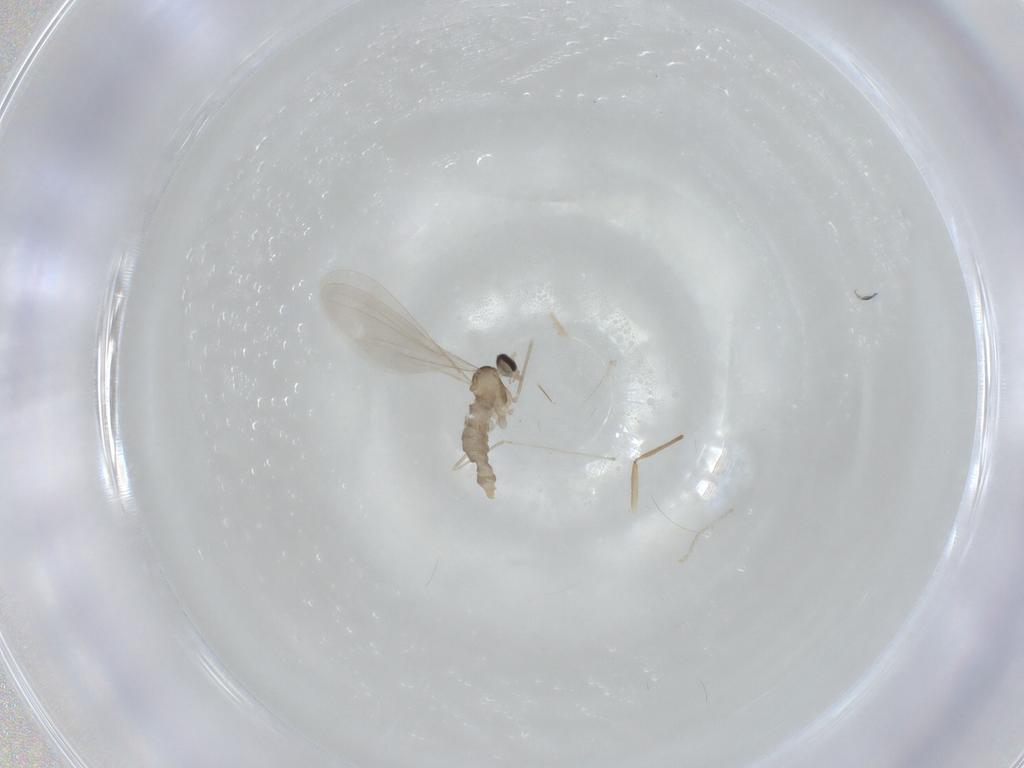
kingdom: Animalia
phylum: Arthropoda
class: Insecta
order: Diptera
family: Cecidomyiidae
